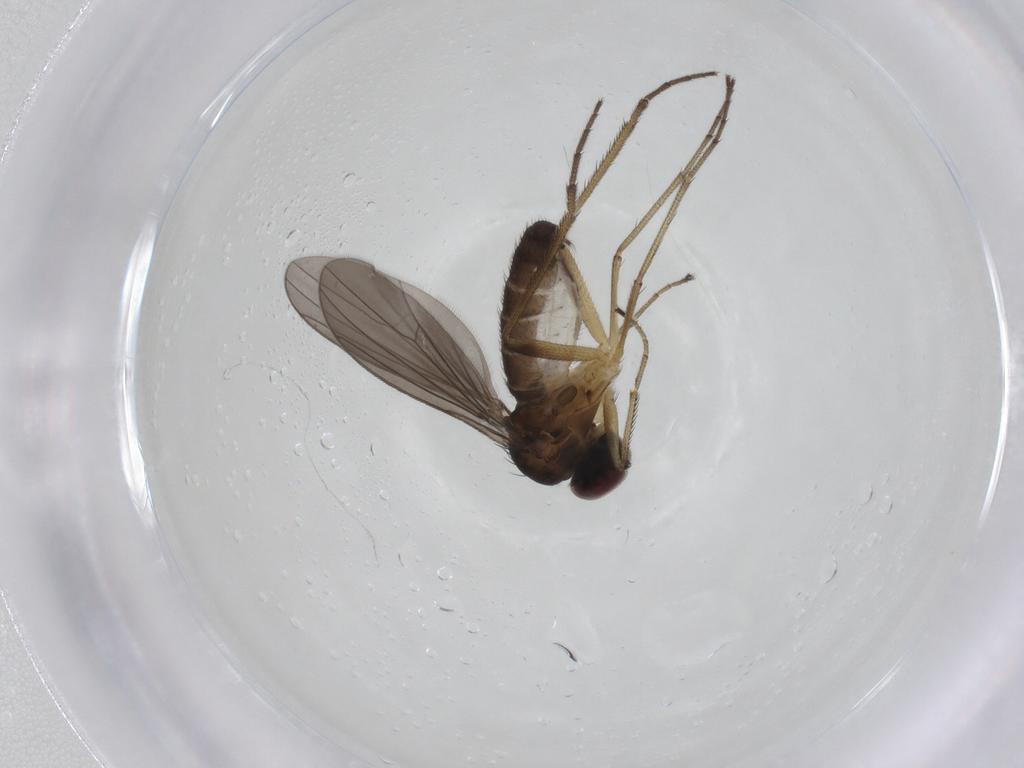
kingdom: Animalia
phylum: Arthropoda
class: Insecta
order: Diptera
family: Dolichopodidae
